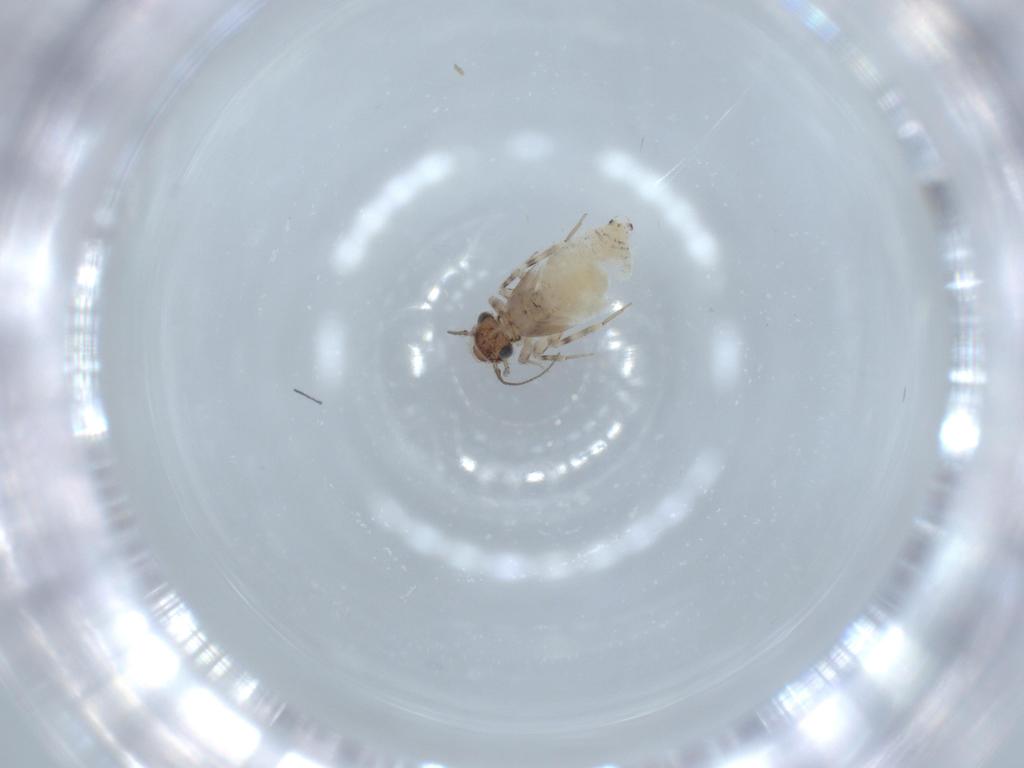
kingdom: Animalia
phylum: Arthropoda
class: Insecta
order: Psocodea
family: Lepidopsocidae
